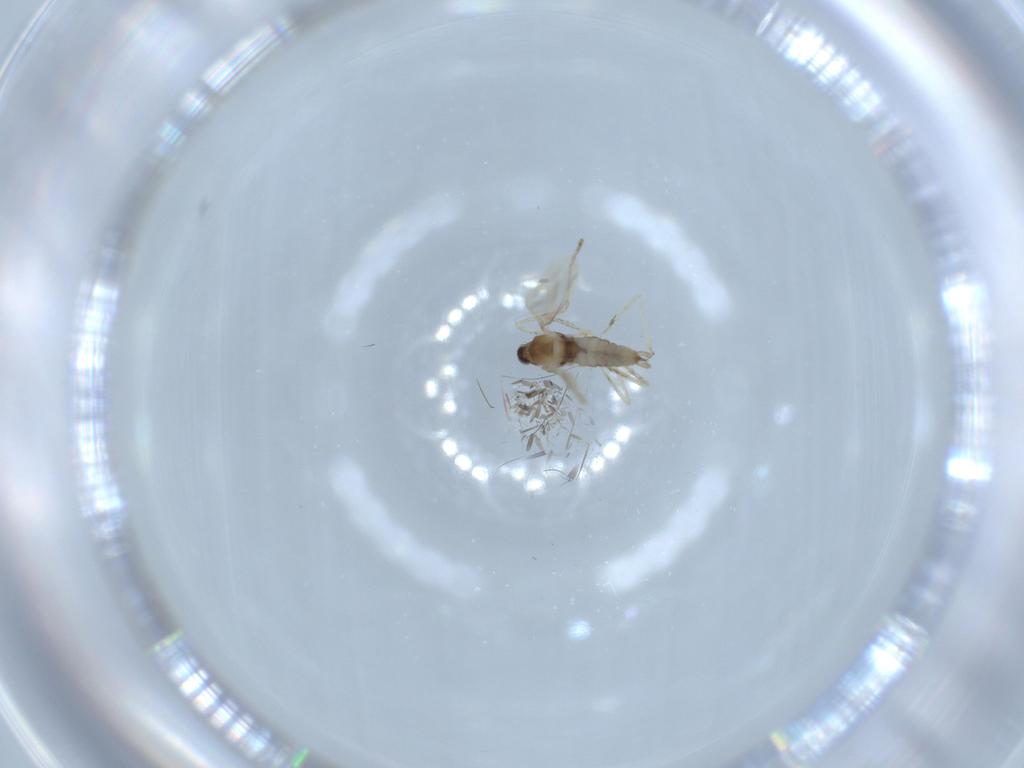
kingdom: Animalia
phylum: Arthropoda
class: Insecta
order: Diptera
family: Cecidomyiidae
